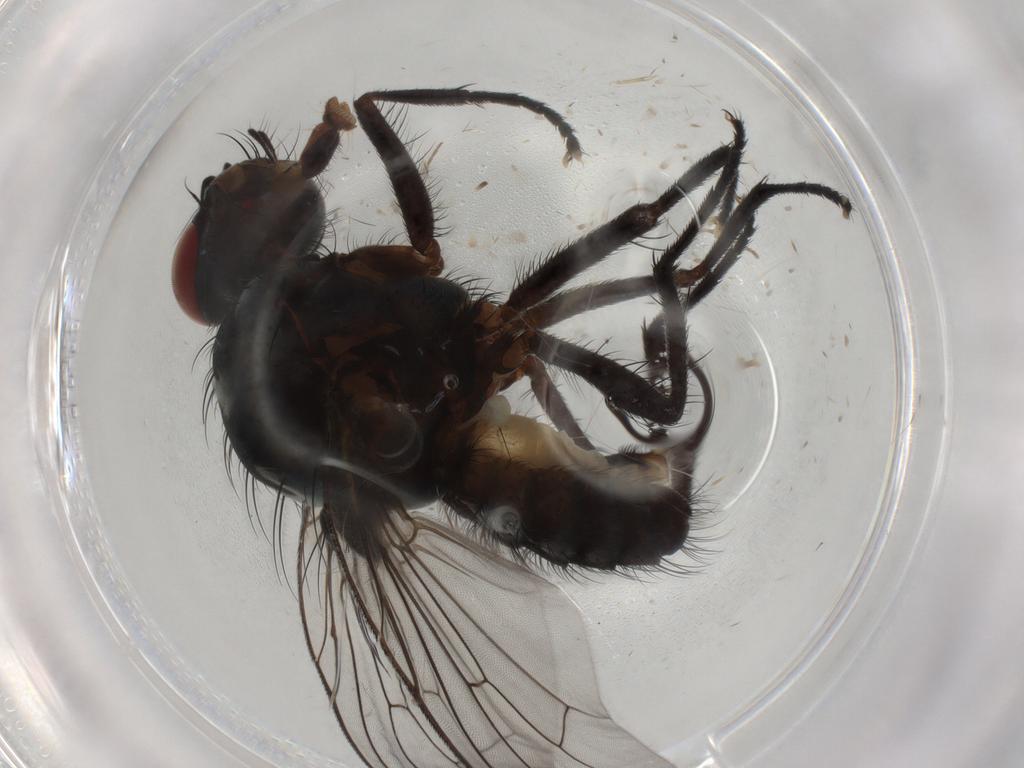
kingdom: Animalia
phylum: Arthropoda
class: Insecta
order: Diptera
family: Anthomyiidae
